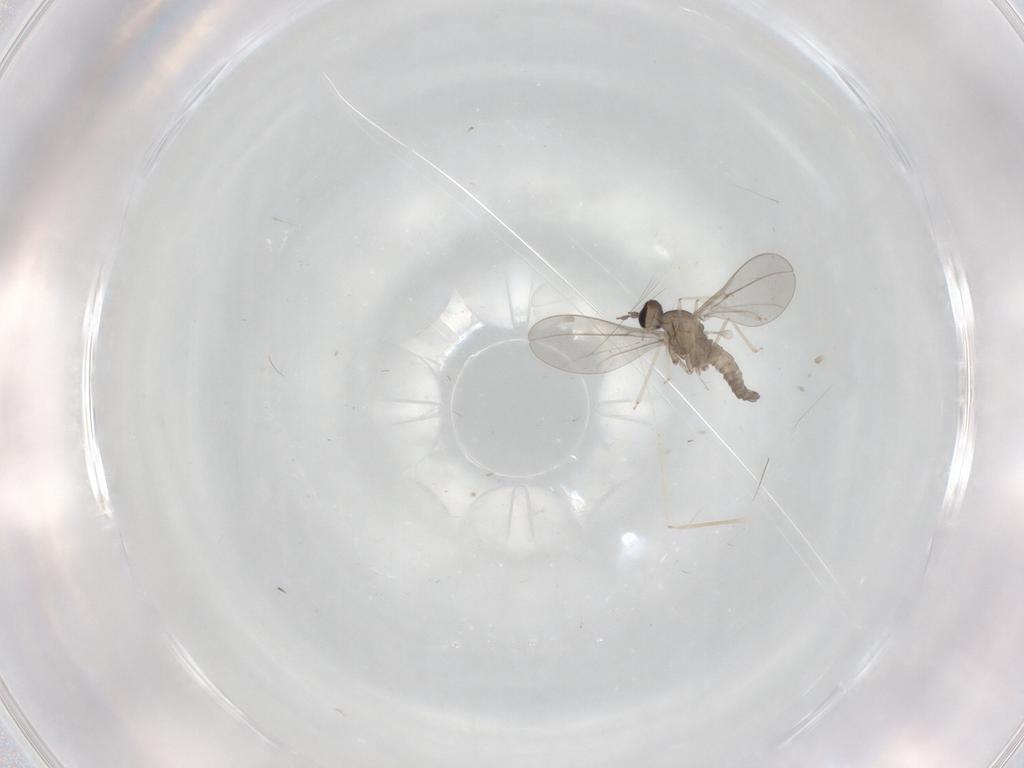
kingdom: Animalia
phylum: Arthropoda
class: Insecta
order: Diptera
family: Cecidomyiidae
